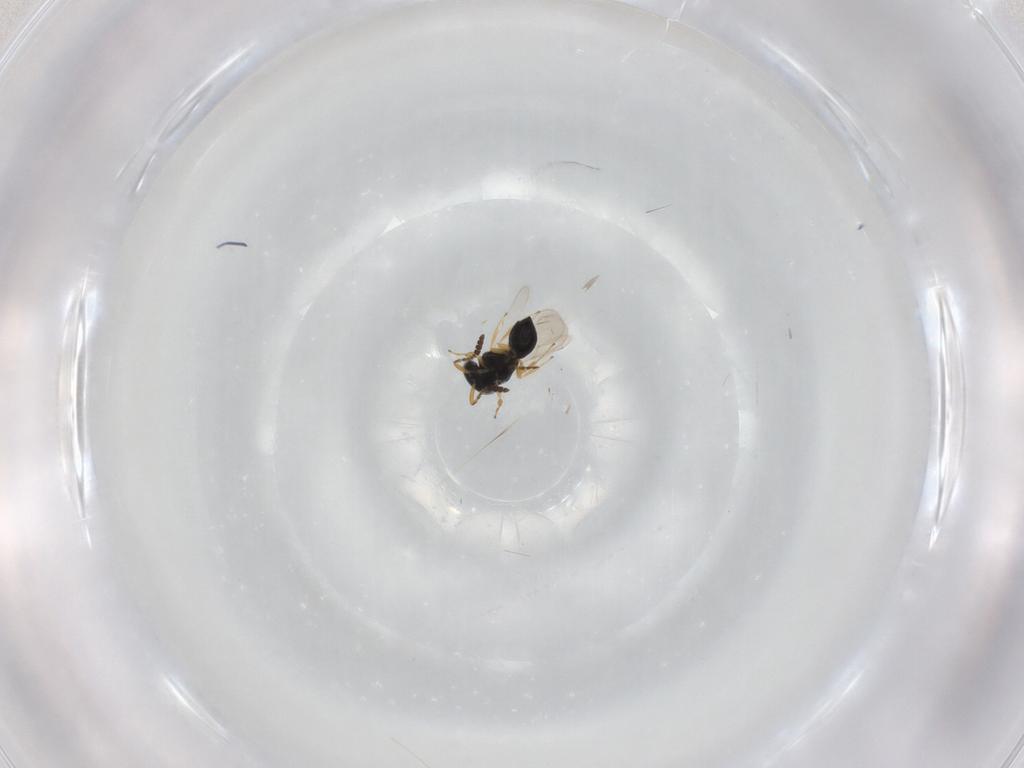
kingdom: Animalia
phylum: Arthropoda
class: Insecta
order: Hymenoptera
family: Scelionidae
